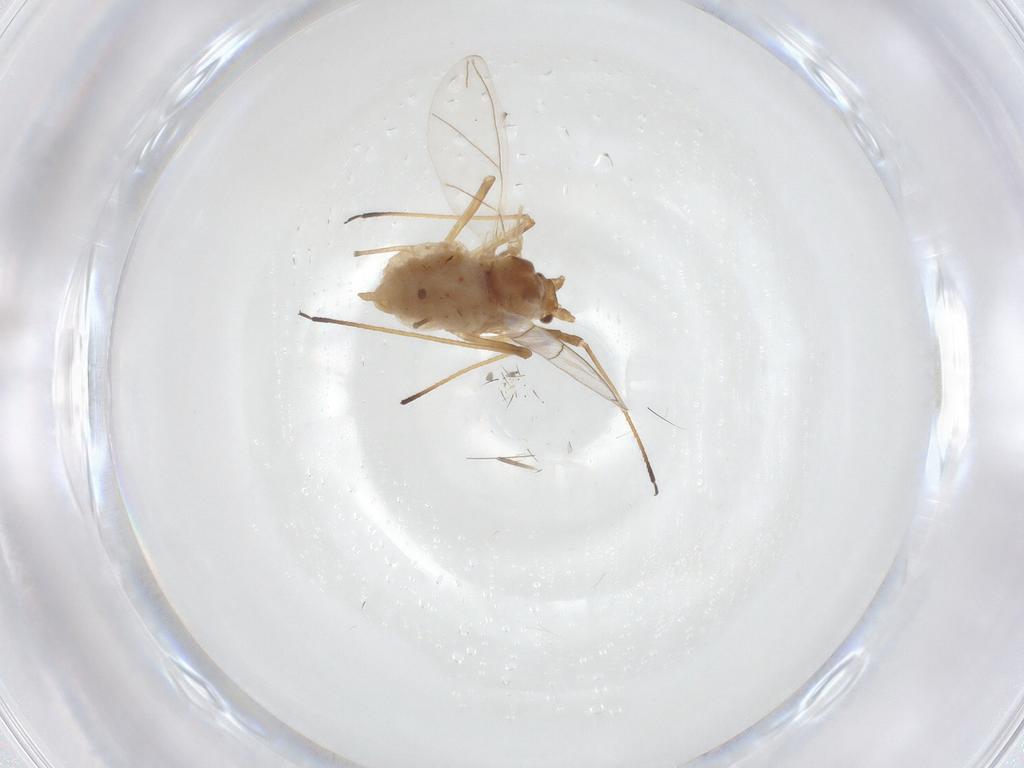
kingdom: Animalia
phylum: Arthropoda
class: Insecta
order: Hemiptera
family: Aphididae
